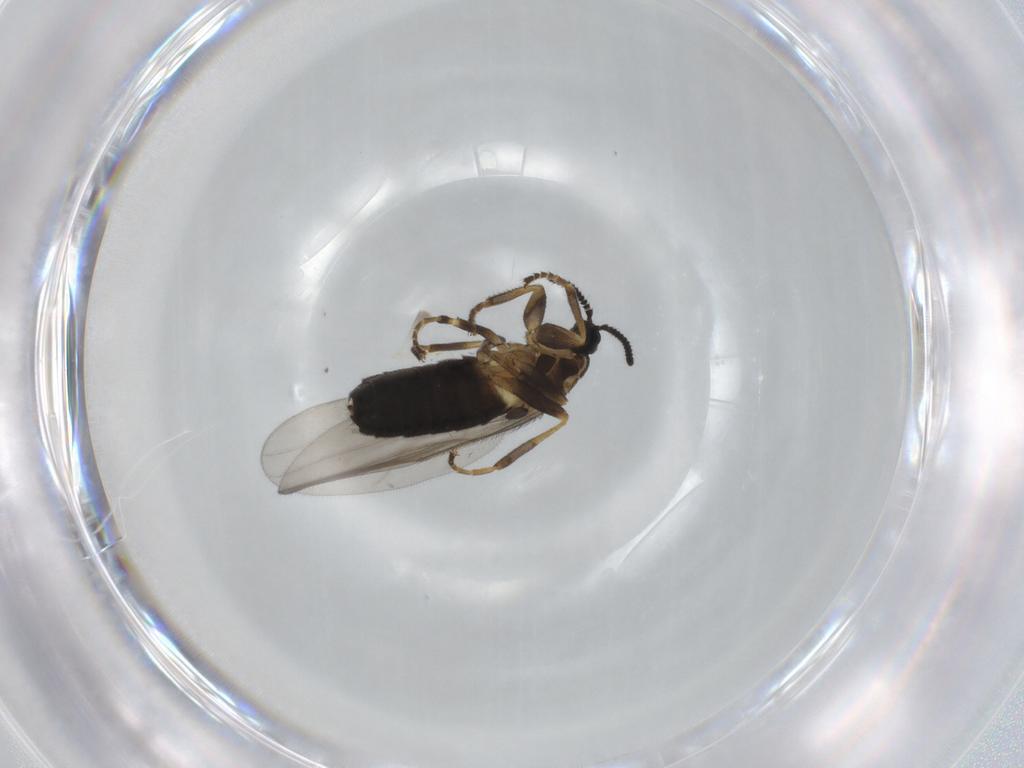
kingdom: Animalia
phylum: Arthropoda
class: Insecta
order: Diptera
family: Scatopsidae
